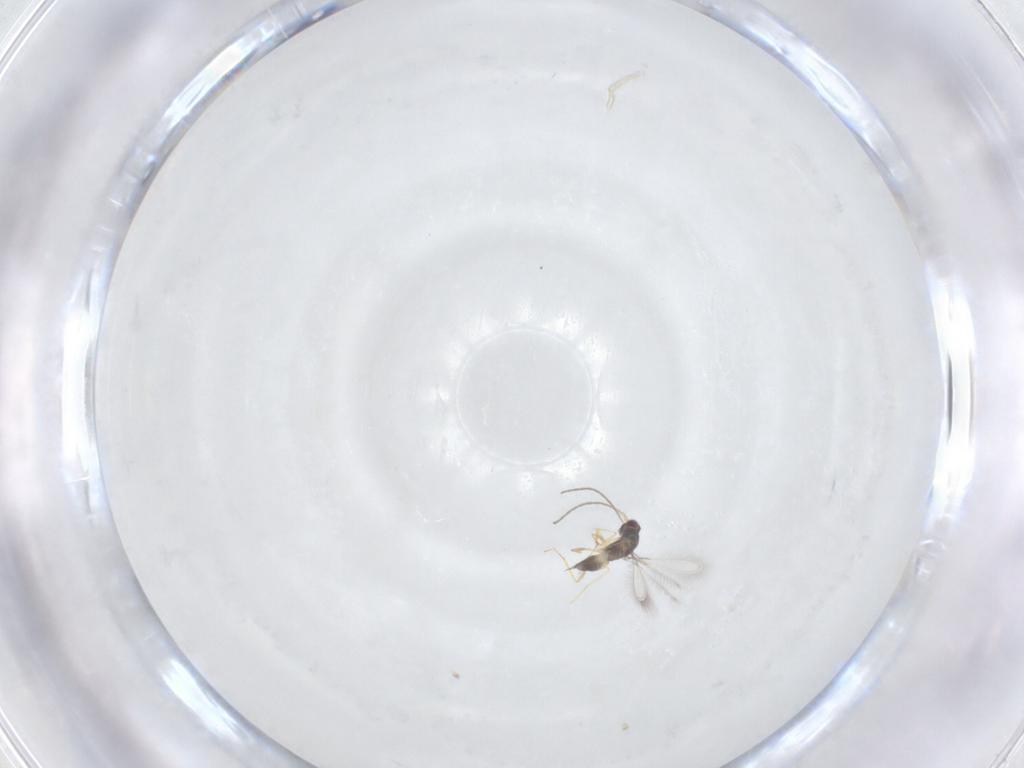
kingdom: Animalia
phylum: Arthropoda
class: Insecta
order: Hymenoptera
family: Mymaridae
